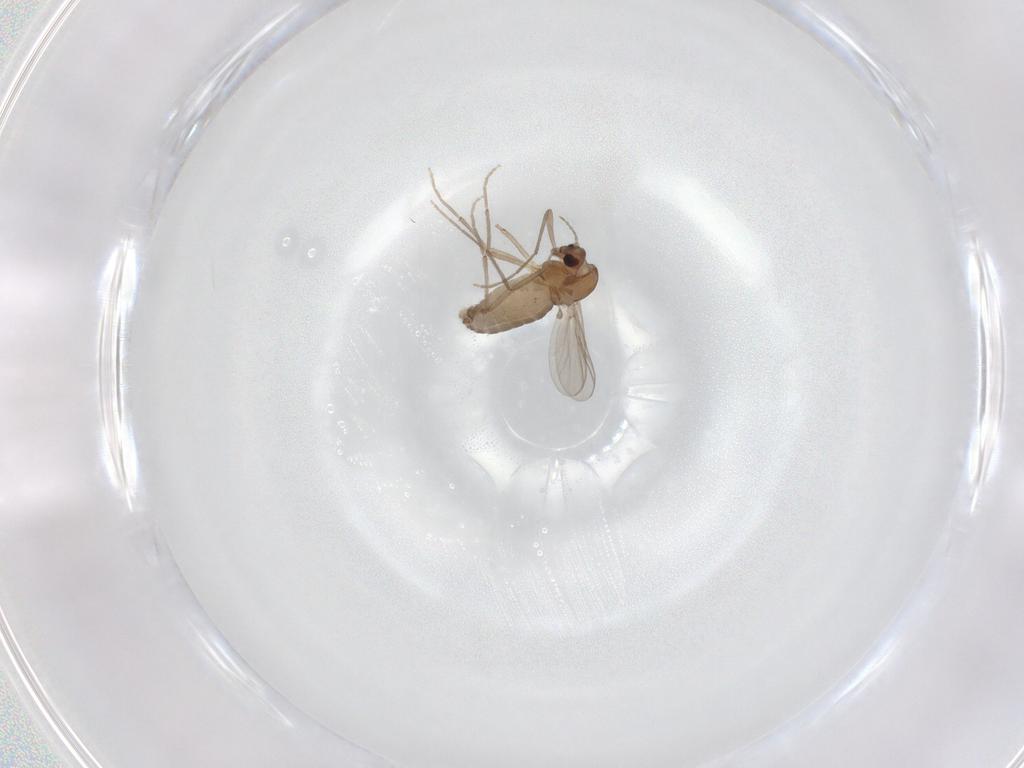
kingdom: Animalia
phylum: Arthropoda
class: Insecta
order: Diptera
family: Chironomidae
